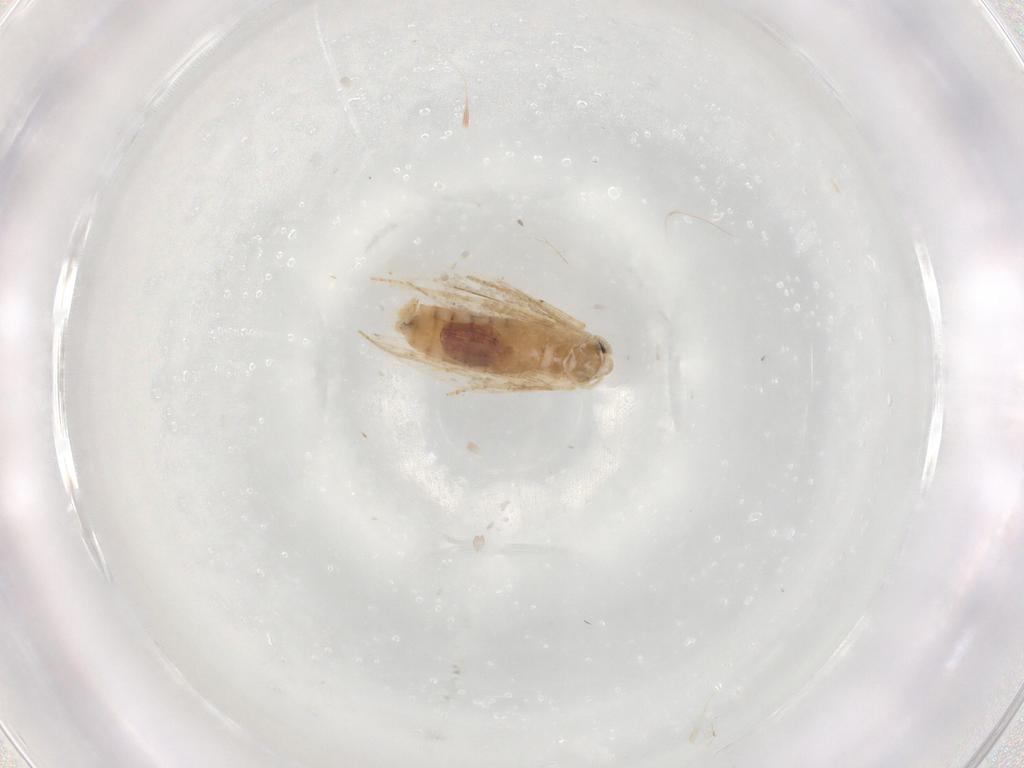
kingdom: Animalia
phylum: Arthropoda
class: Insecta
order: Lepidoptera
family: Depressariidae
